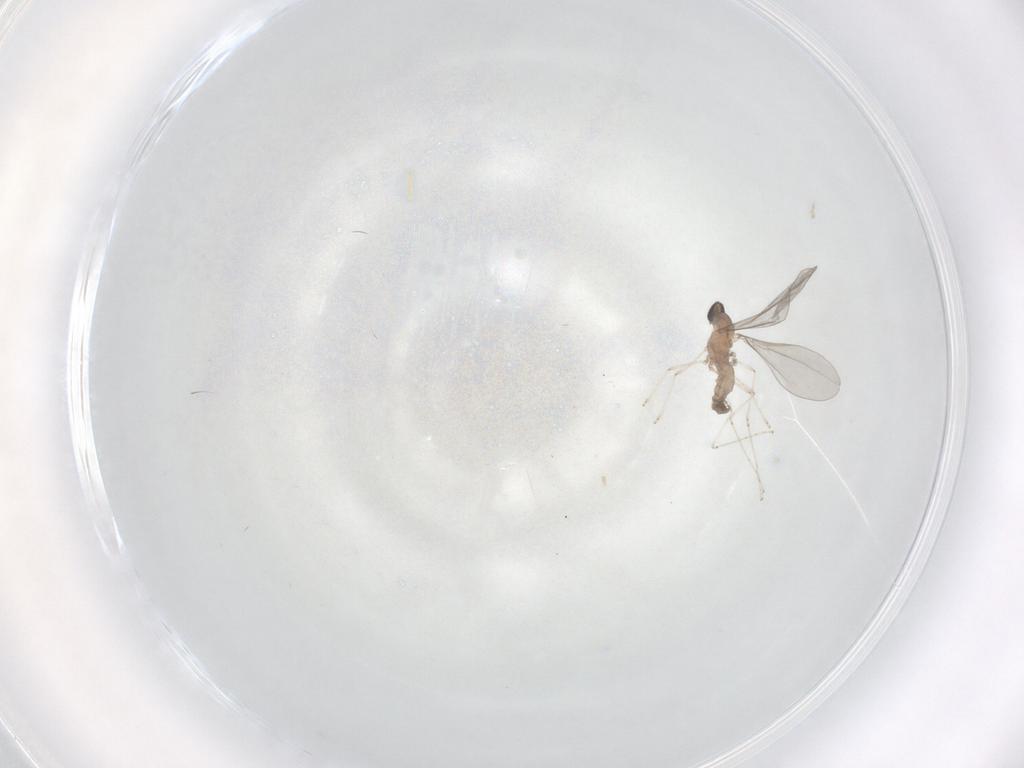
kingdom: Animalia
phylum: Arthropoda
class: Insecta
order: Diptera
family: Cecidomyiidae
